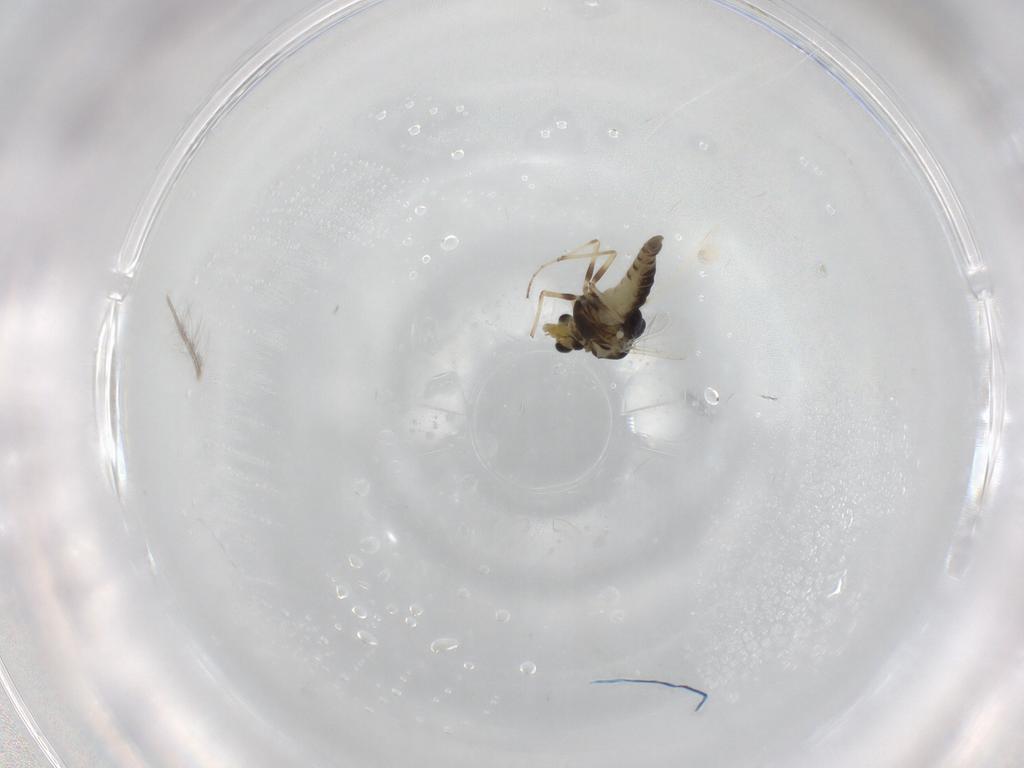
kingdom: Animalia
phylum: Arthropoda
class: Insecta
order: Diptera
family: Chironomidae
